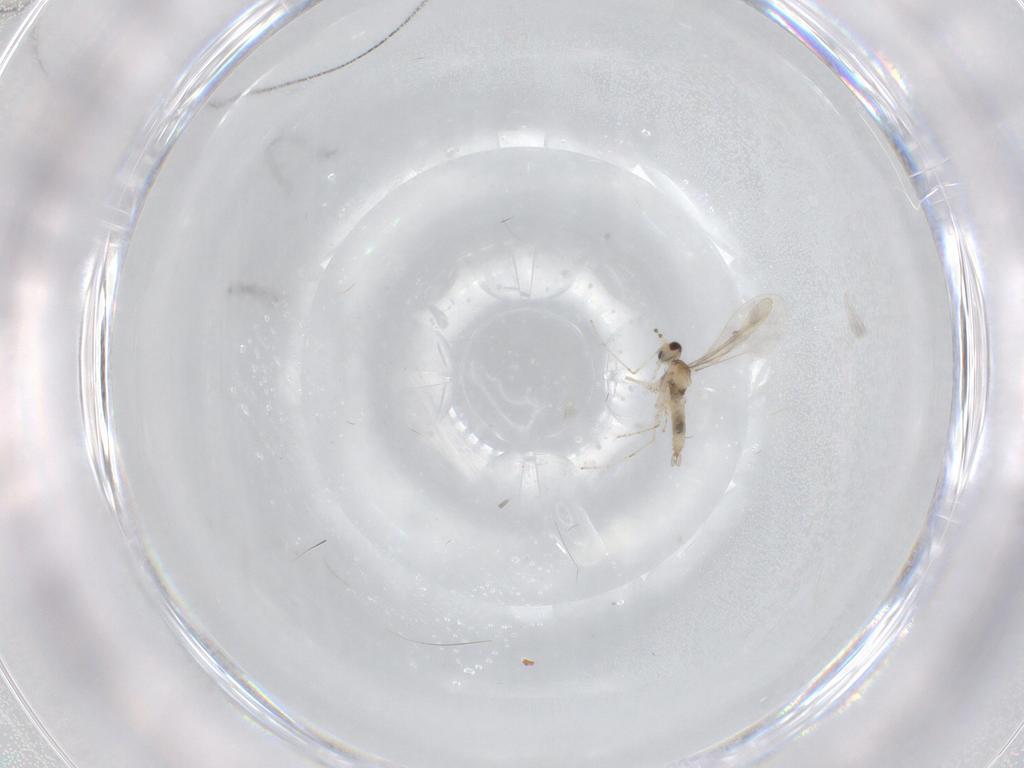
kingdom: Animalia
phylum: Arthropoda
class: Insecta
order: Diptera
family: Cecidomyiidae
